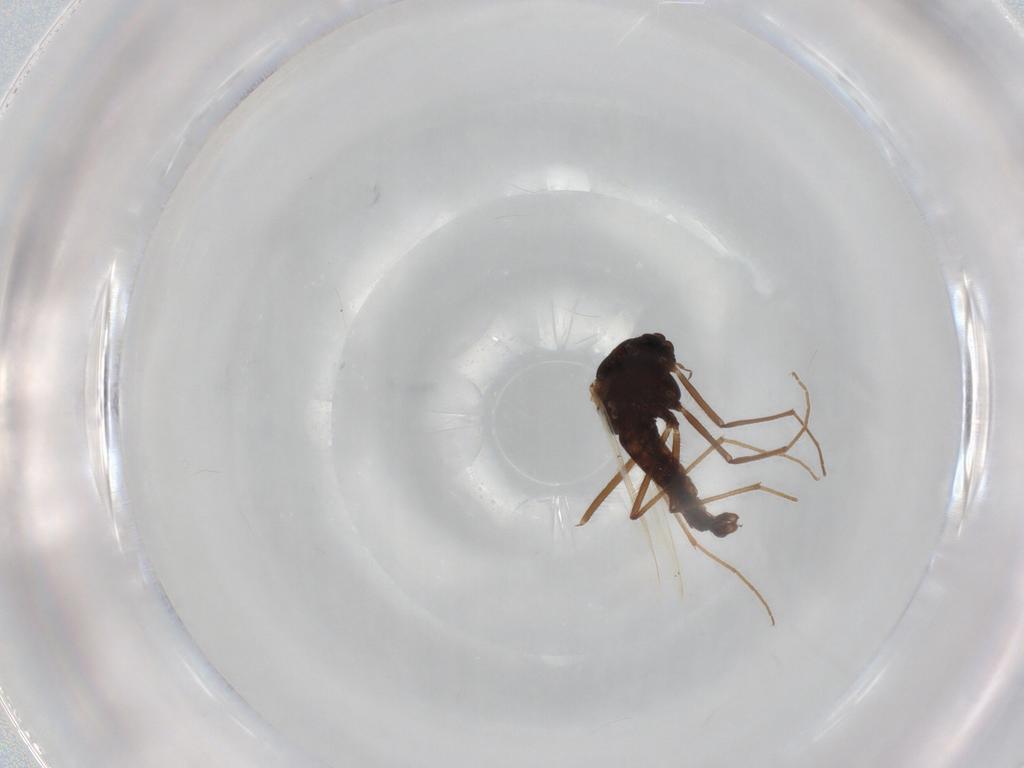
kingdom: Animalia
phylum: Arthropoda
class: Insecta
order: Diptera
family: Chironomidae
